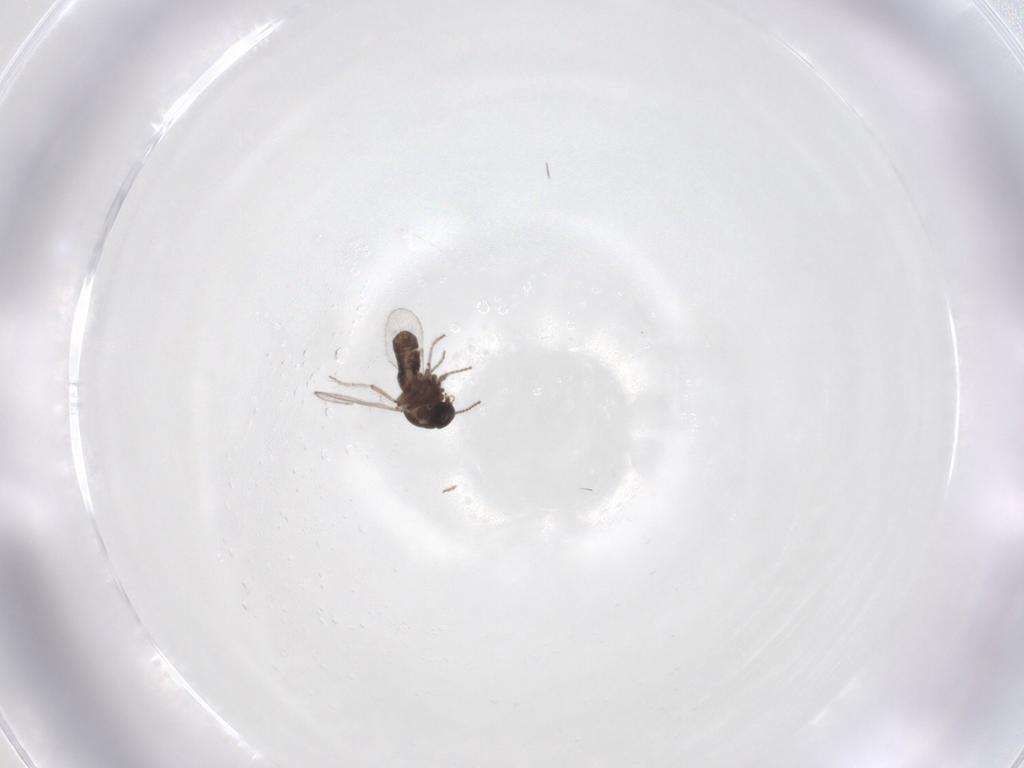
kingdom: Animalia
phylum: Arthropoda
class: Insecta
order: Diptera
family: Ceratopogonidae
